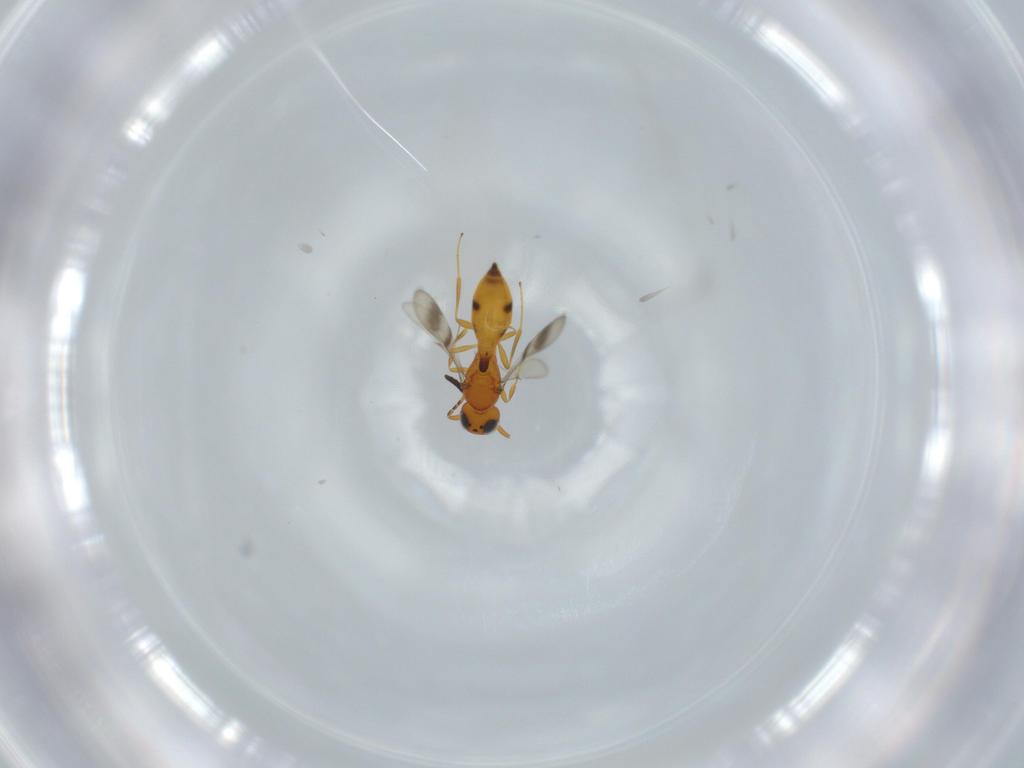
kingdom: Animalia
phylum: Arthropoda
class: Insecta
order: Hymenoptera
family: Scelionidae
